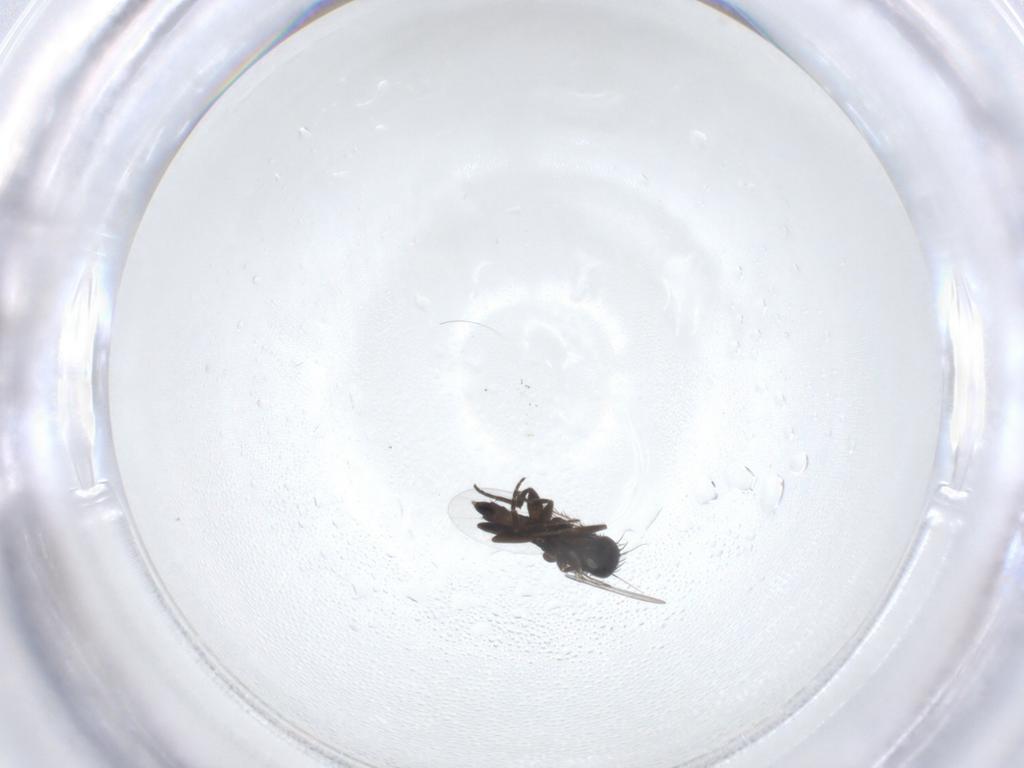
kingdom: Animalia
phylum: Arthropoda
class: Insecta
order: Diptera
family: Phoridae
